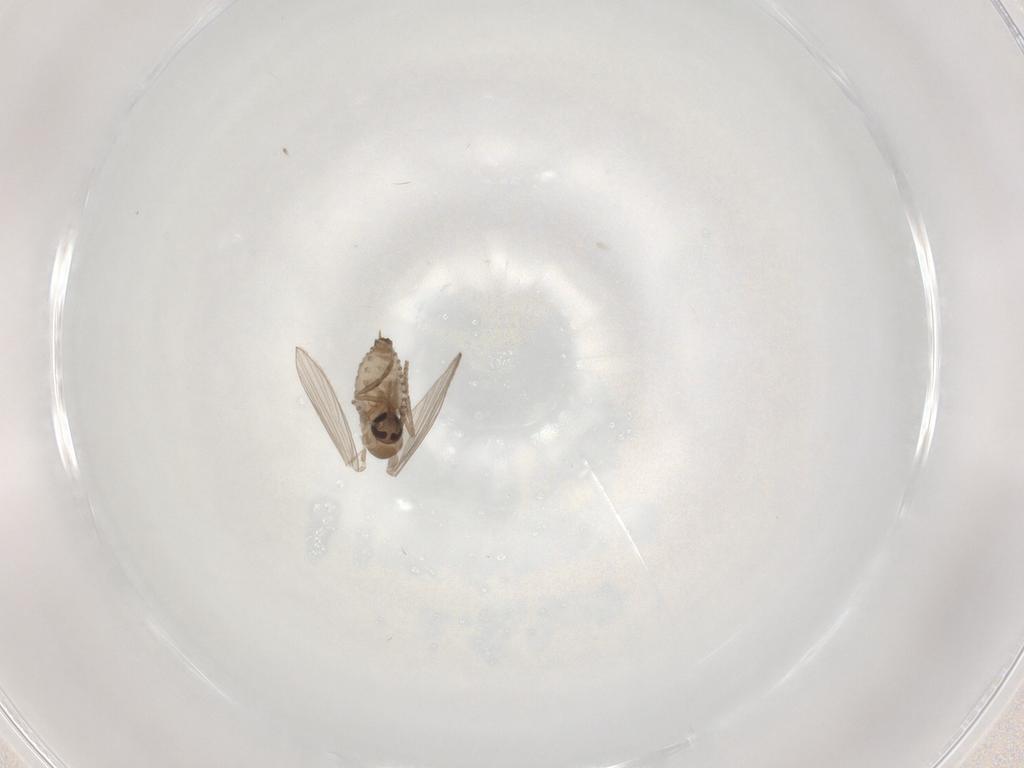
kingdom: Animalia
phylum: Arthropoda
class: Insecta
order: Diptera
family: Psychodidae
